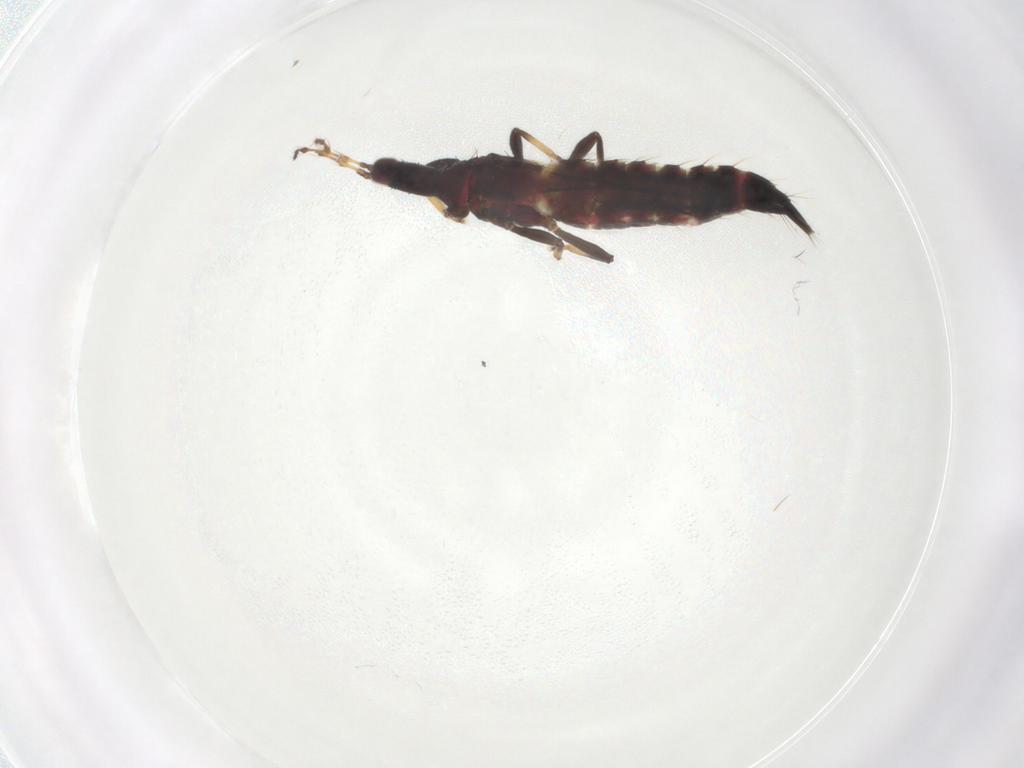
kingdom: Animalia
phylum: Arthropoda
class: Insecta
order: Thysanoptera
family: Phlaeothripidae
